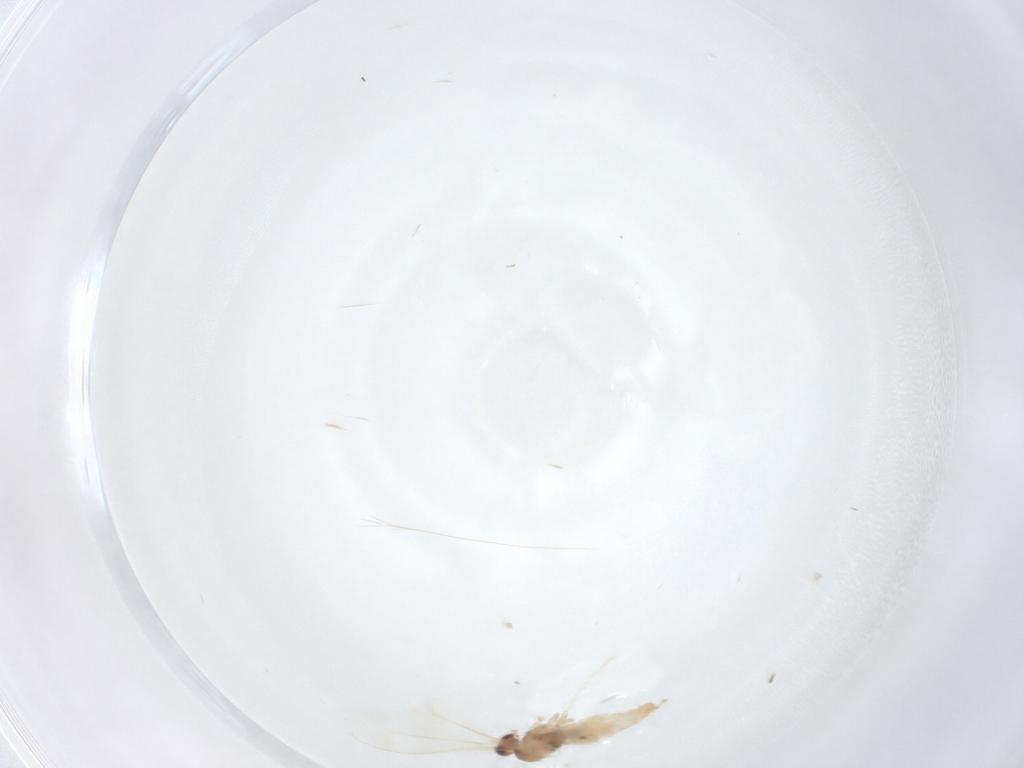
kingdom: Animalia
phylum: Arthropoda
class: Insecta
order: Diptera
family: Cecidomyiidae
